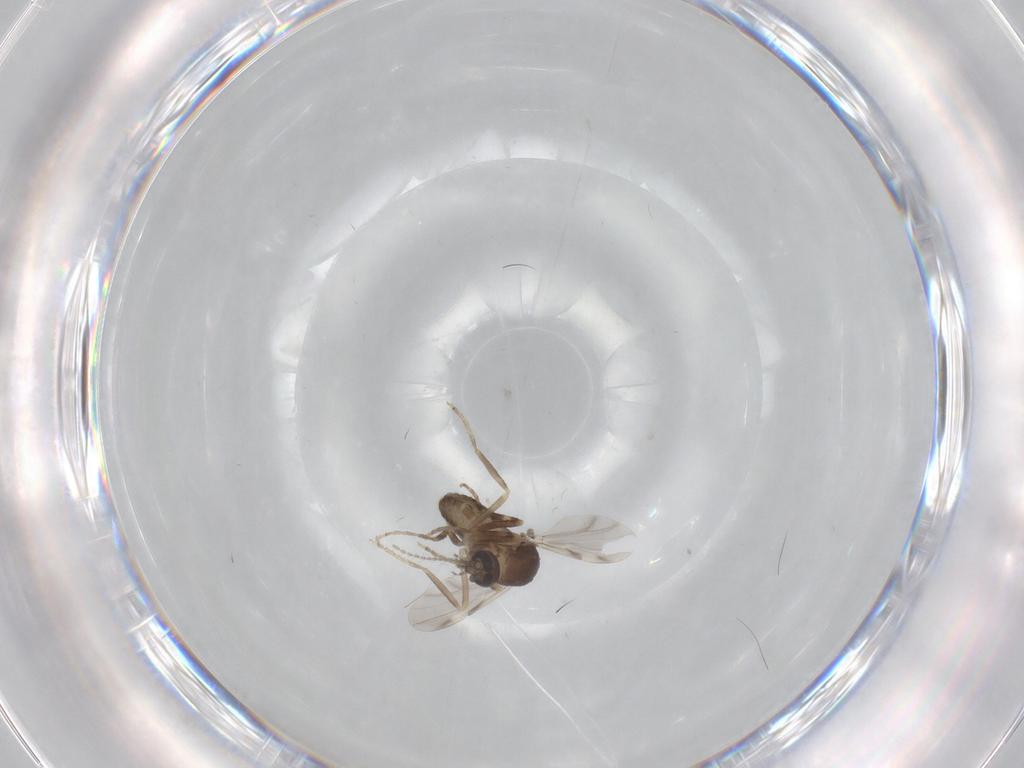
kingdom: Animalia
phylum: Arthropoda
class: Insecta
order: Diptera
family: Ceratopogonidae
